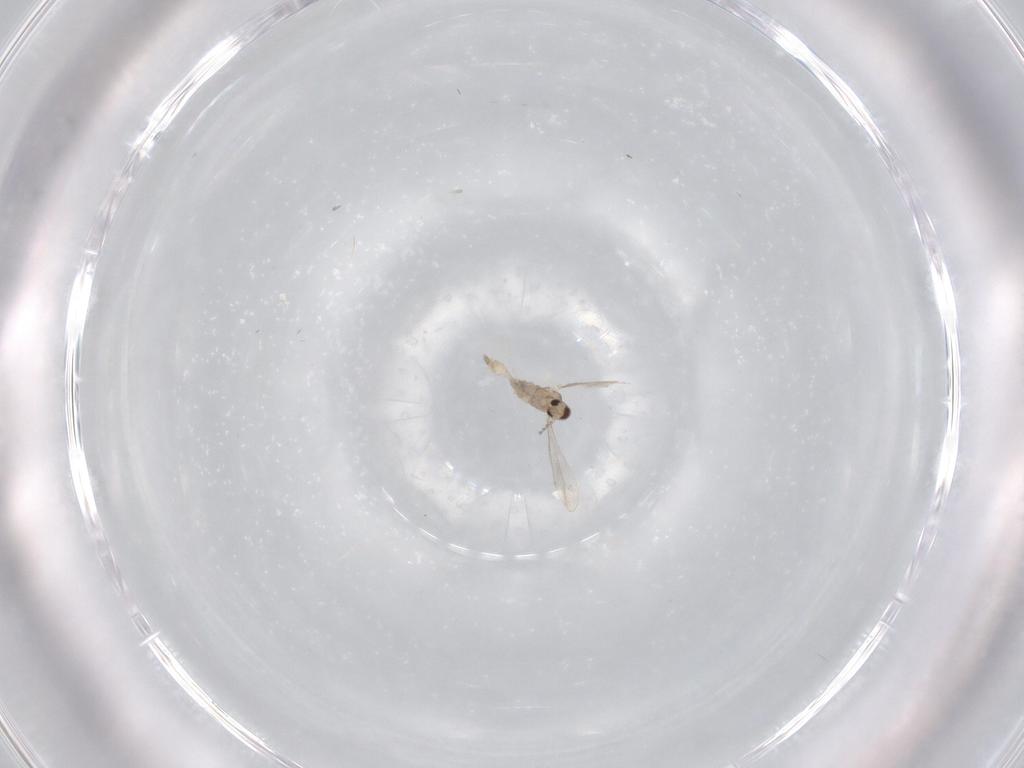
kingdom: Animalia
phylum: Arthropoda
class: Insecta
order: Diptera
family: Cecidomyiidae
